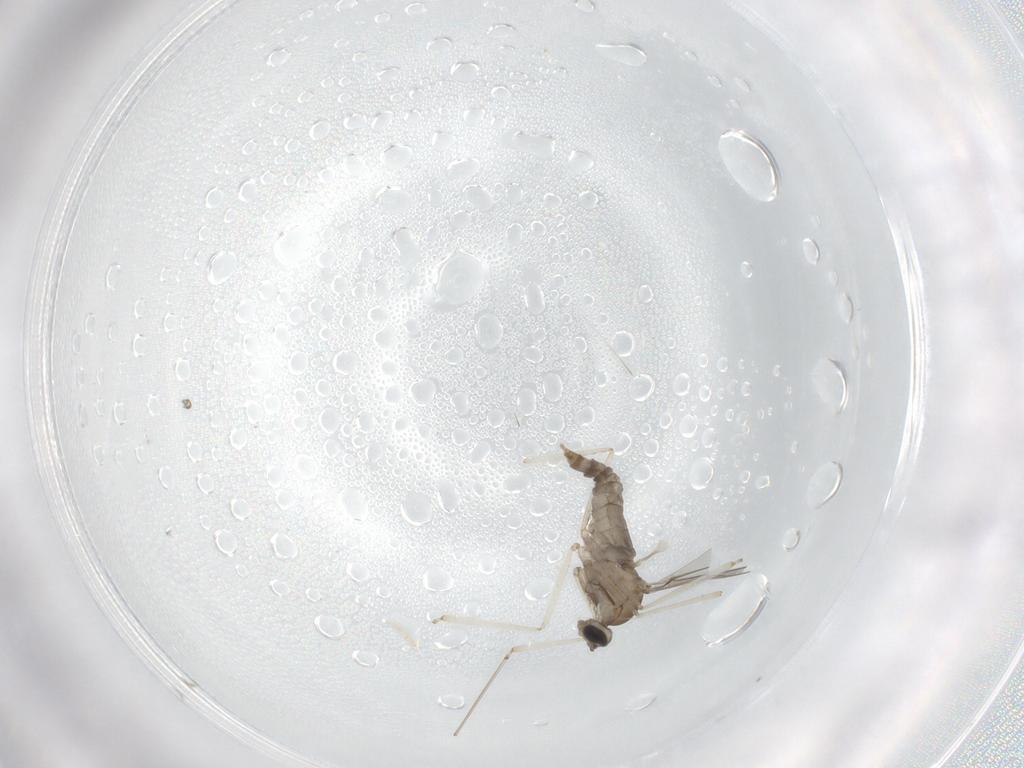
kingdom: Animalia
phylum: Arthropoda
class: Insecta
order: Diptera
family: Cecidomyiidae
